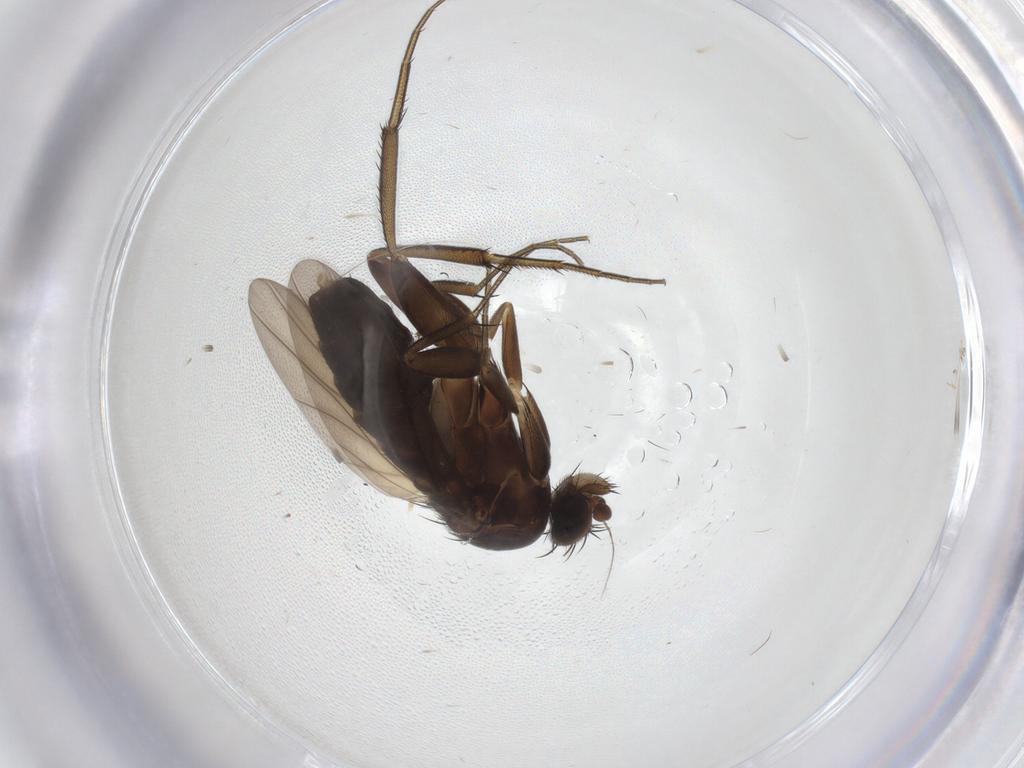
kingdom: Animalia
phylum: Arthropoda
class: Insecta
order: Diptera
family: Phoridae
